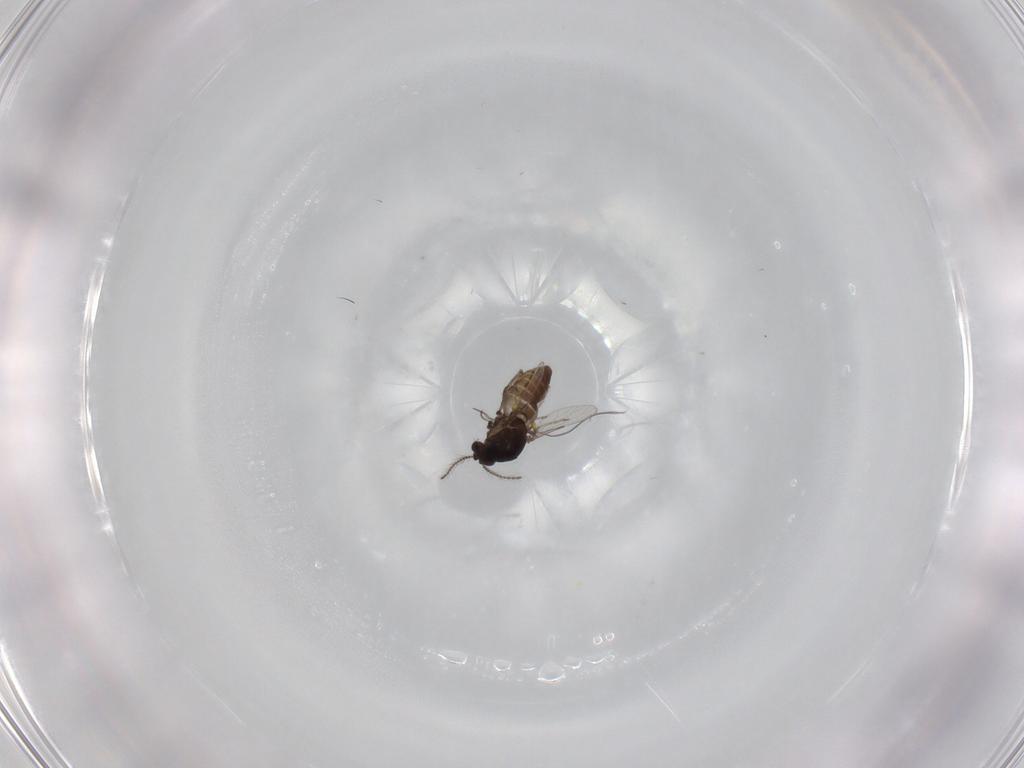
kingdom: Animalia
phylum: Arthropoda
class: Insecta
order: Diptera
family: Ceratopogonidae
